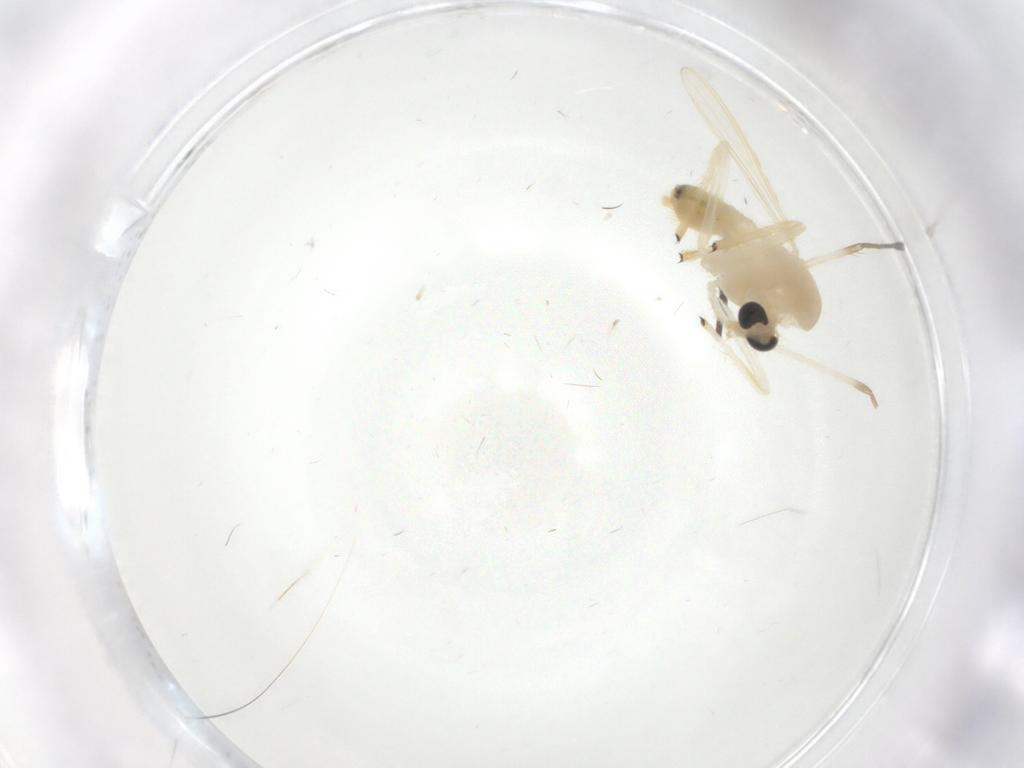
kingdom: Animalia
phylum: Arthropoda
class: Insecta
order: Diptera
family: Chironomidae
